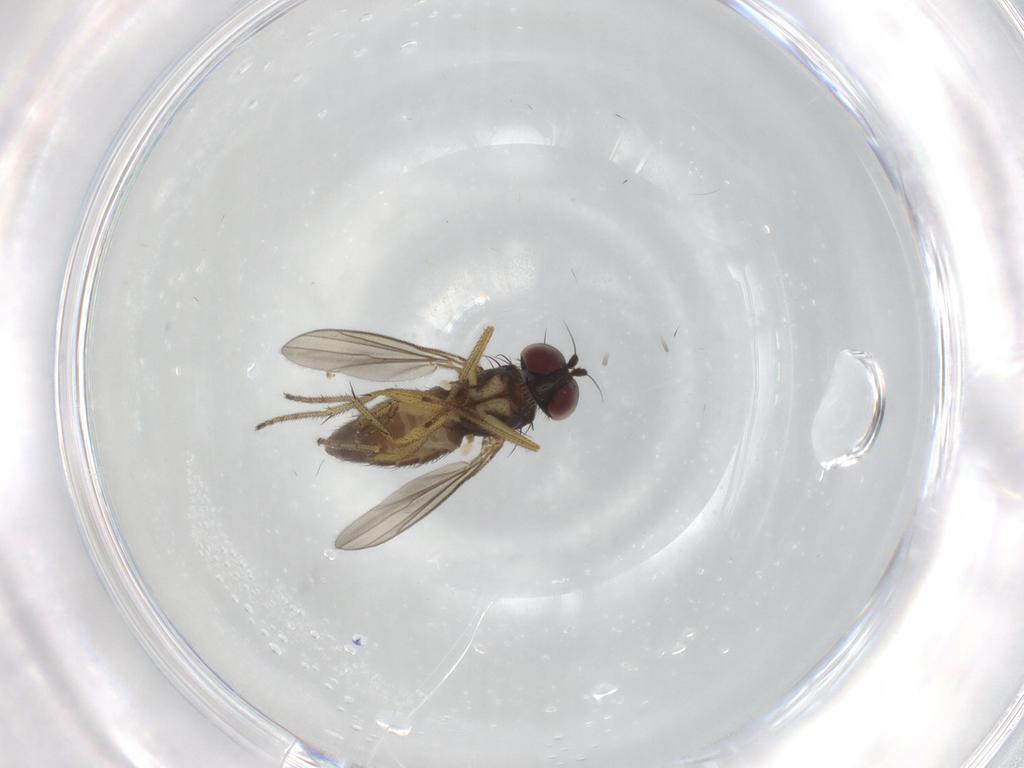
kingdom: Animalia
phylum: Arthropoda
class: Insecta
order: Diptera
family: Dolichopodidae
